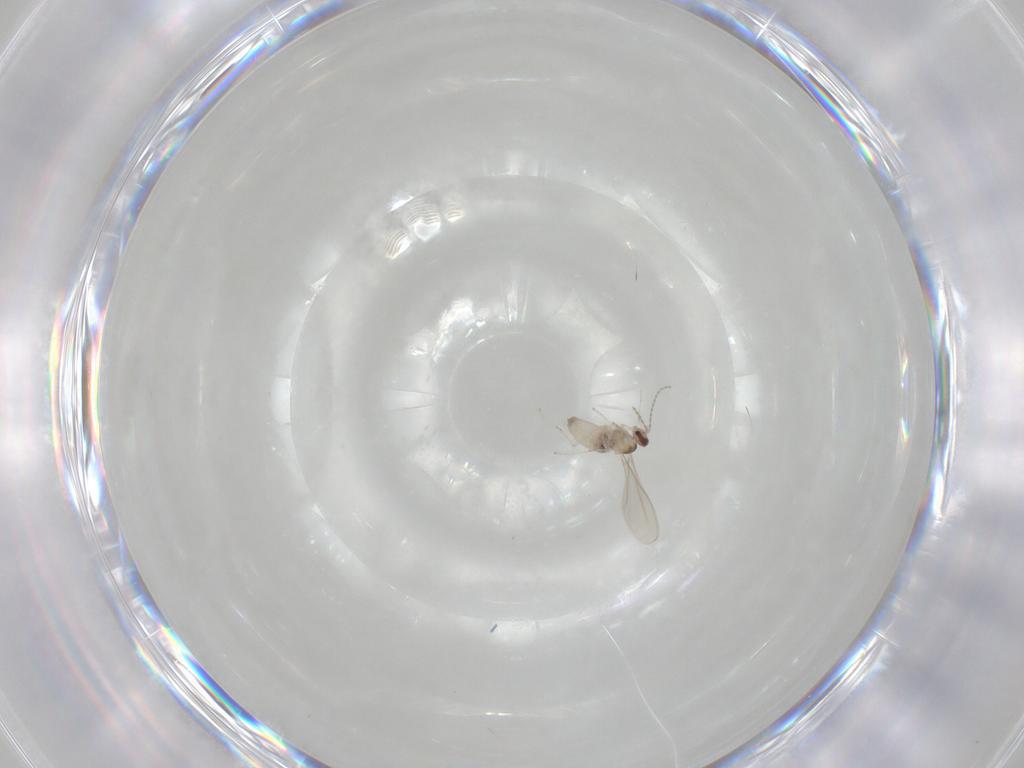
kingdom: Animalia
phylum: Arthropoda
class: Insecta
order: Diptera
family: Cecidomyiidae
